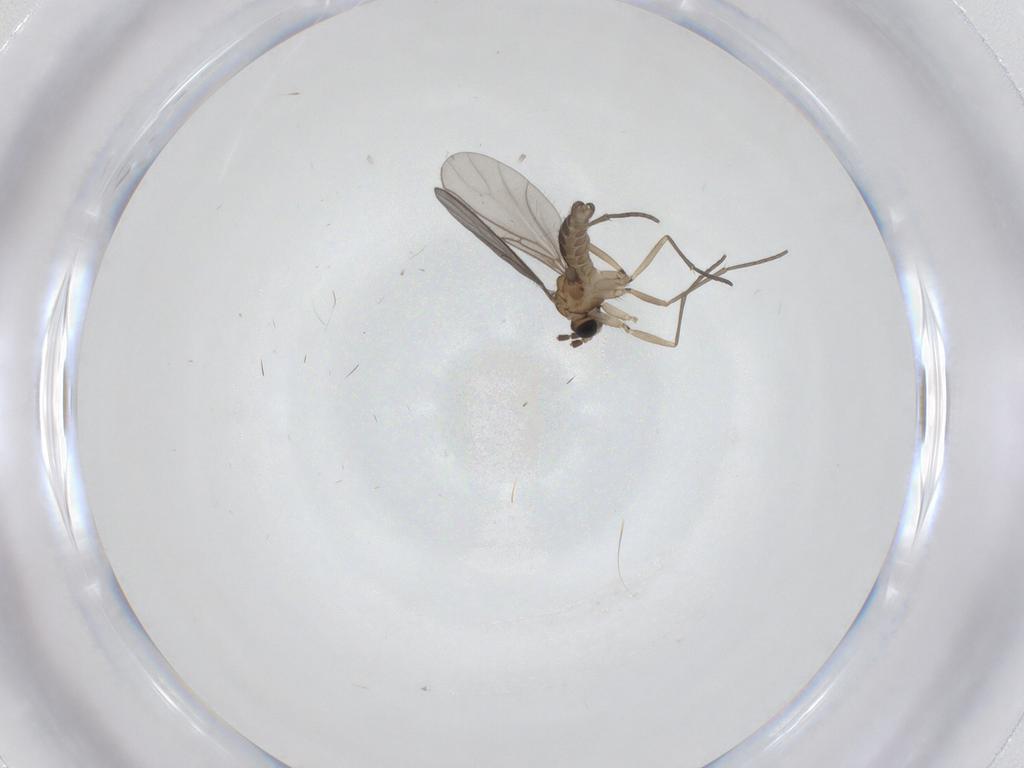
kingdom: Animalia
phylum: Arthropoda
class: Insecta
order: Diptera
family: Sciaridae
